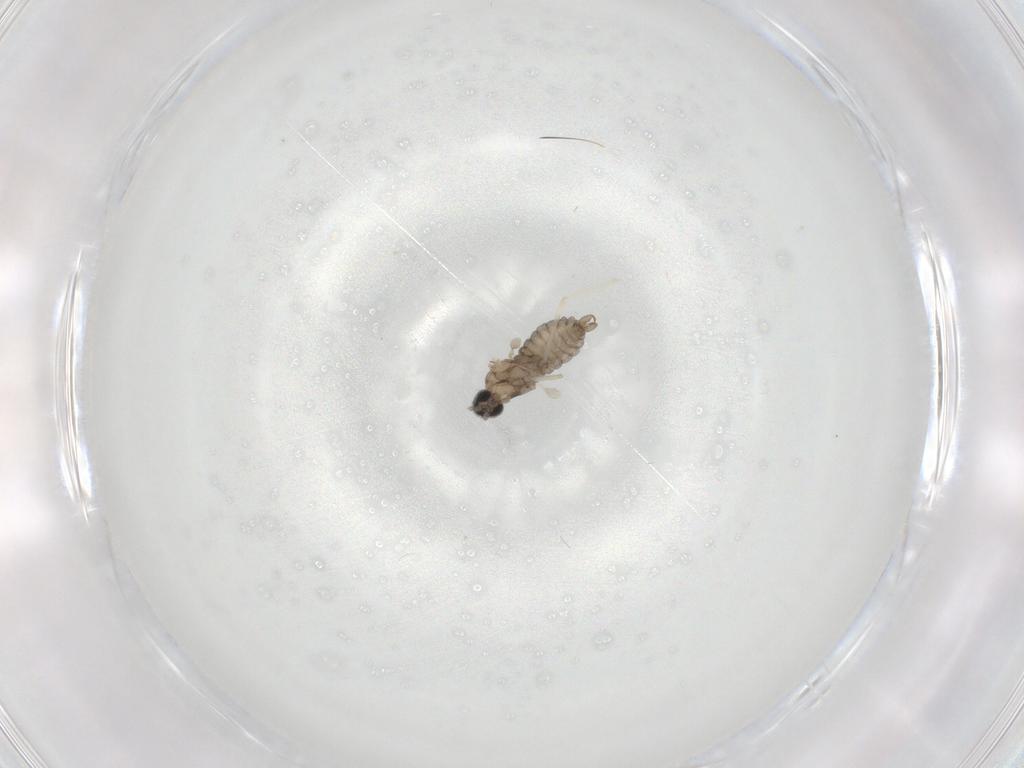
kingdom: Animalia
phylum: Arthropoda
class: Insecta
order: Diptera
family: Cecidomyiidae
